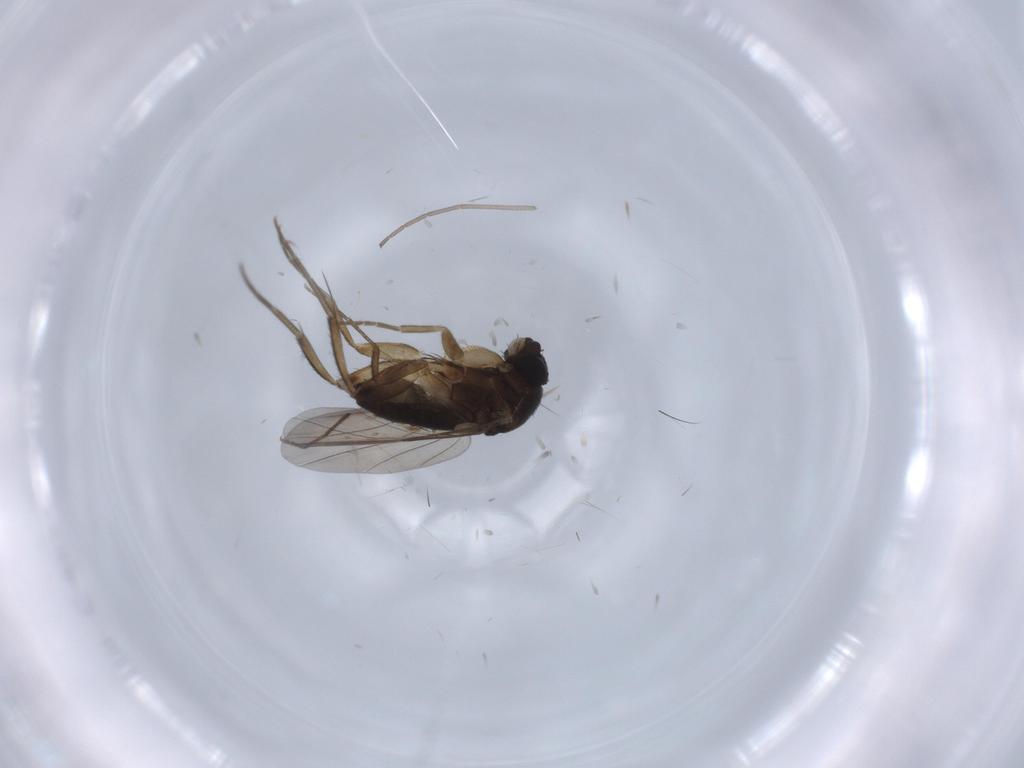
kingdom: Animalia
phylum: Arthropoda
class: Insecta
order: Diptera
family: Phoridae
